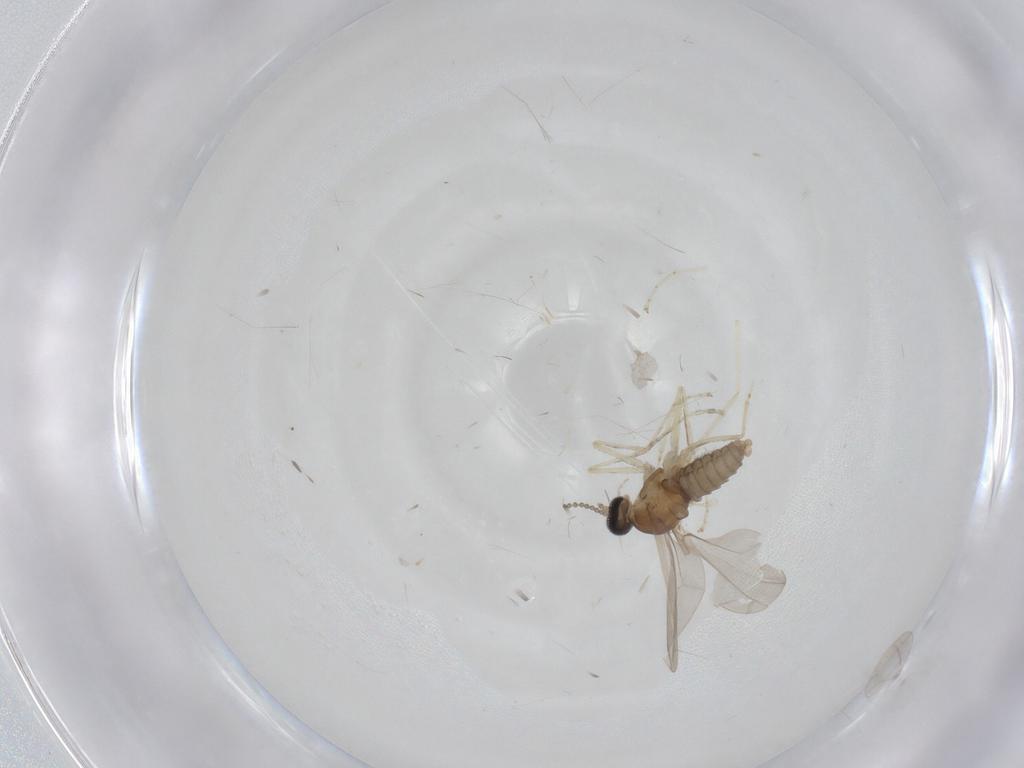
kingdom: Animalia
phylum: Arthropoda
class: Insecta
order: Diptera
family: Cecidomyiidae
